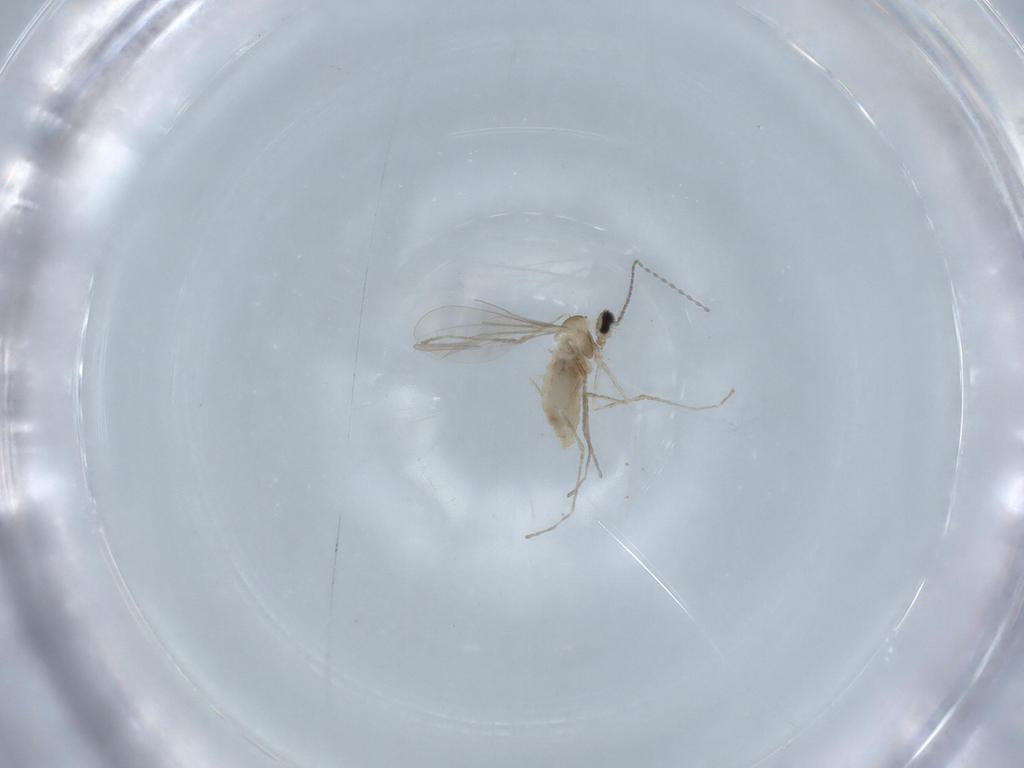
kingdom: Animalia
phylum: Arthropoda
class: Insecta
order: Diptera
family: Cecidomyiidae
